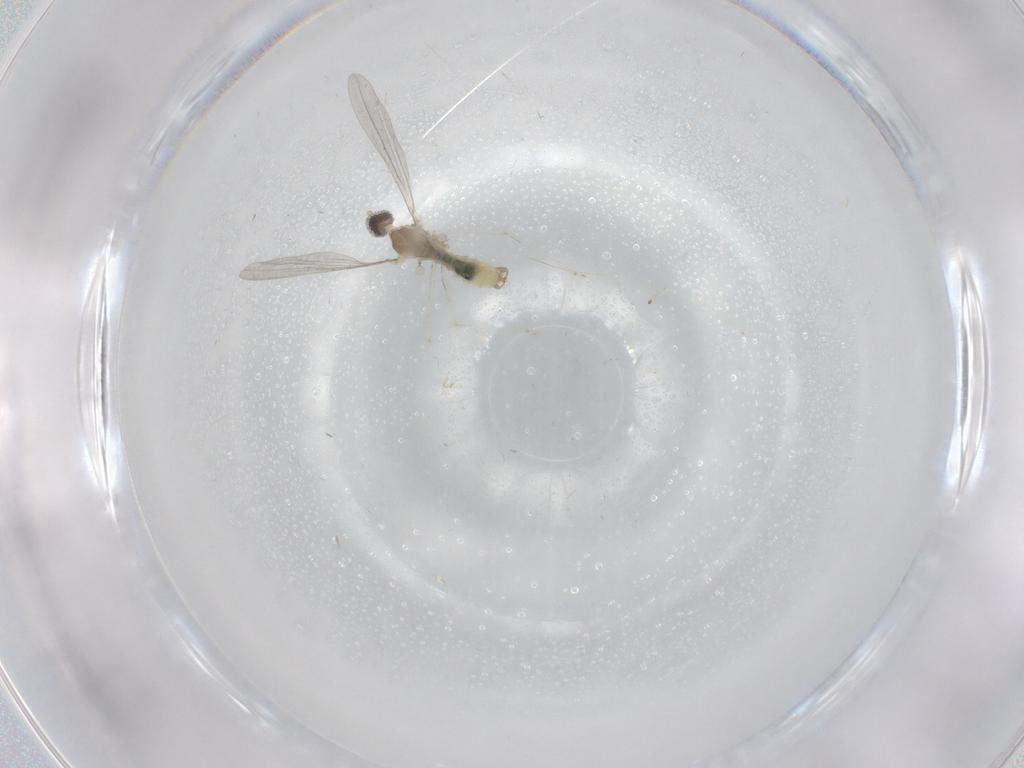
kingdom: Animalia
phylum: Arthropoda
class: Insecta
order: Diptera
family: Cecidomyiidae
